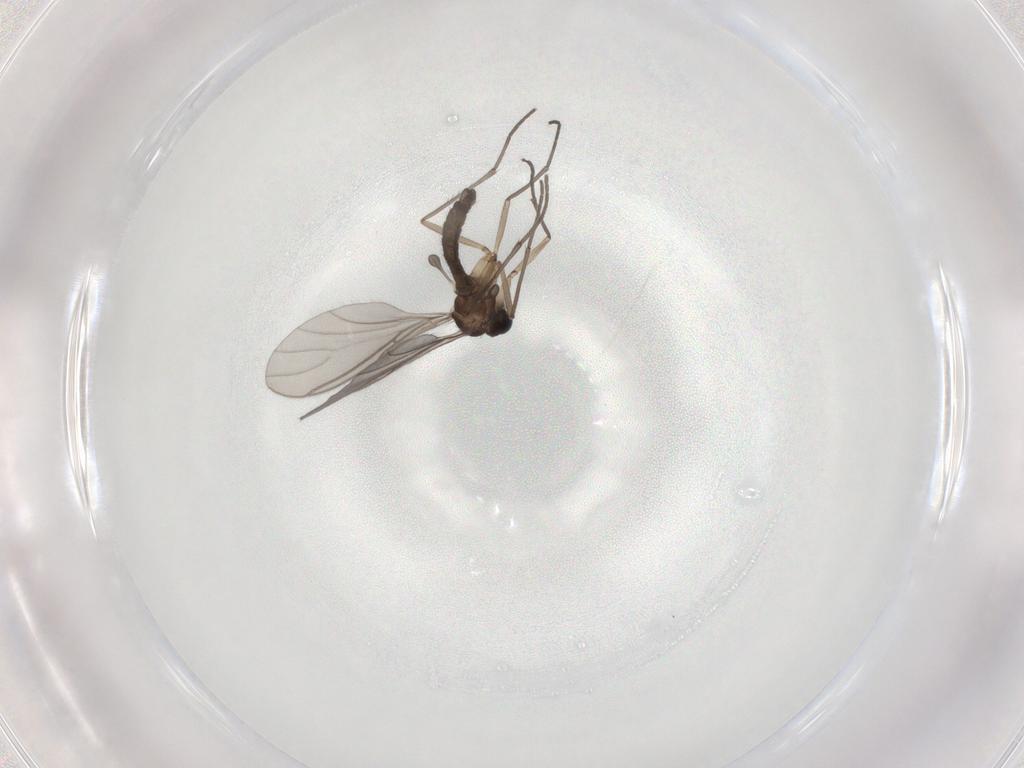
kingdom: Animalia
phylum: Arthropoda
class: Insecta
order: Diptera
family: Sciaridae
